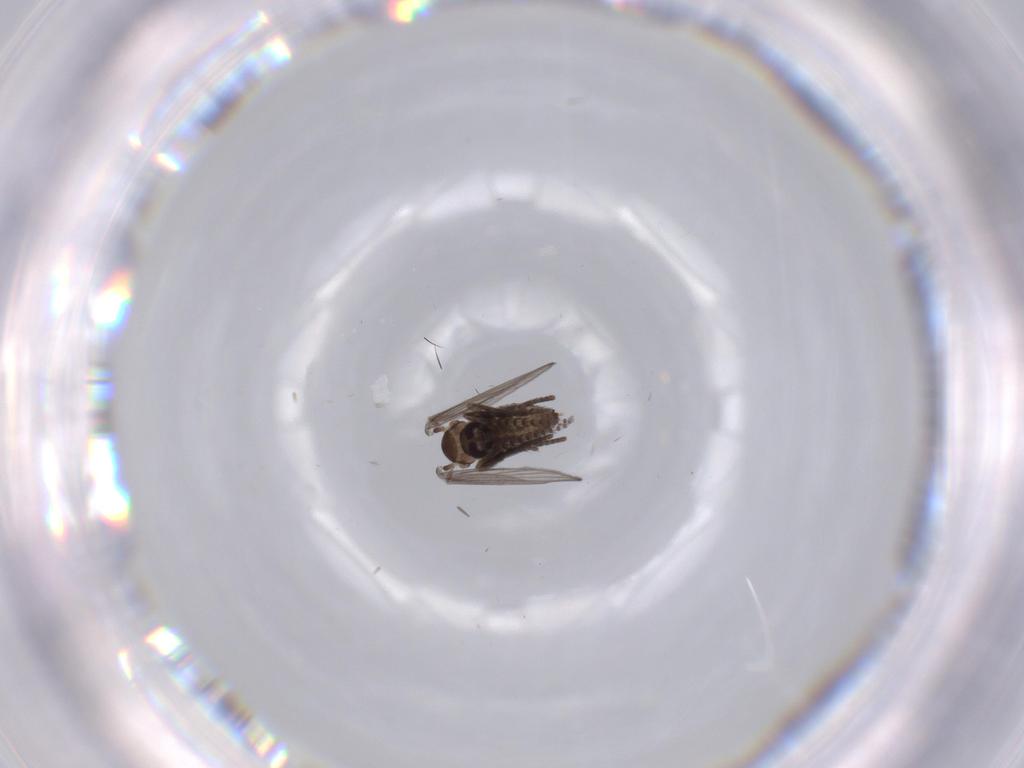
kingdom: Animalia
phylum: Arthropoda
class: Insecta
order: Diptera
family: Psychodidae
